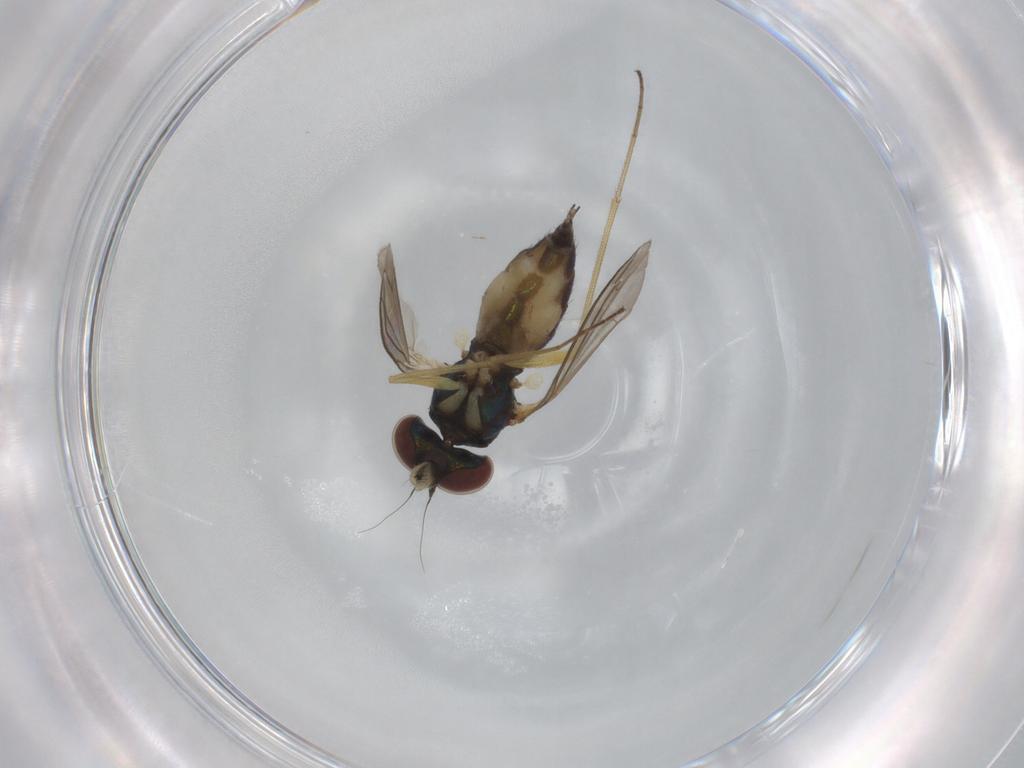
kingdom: Animalia
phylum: Arthropoda
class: Insecta
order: Diptera
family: Dolichopodidae
